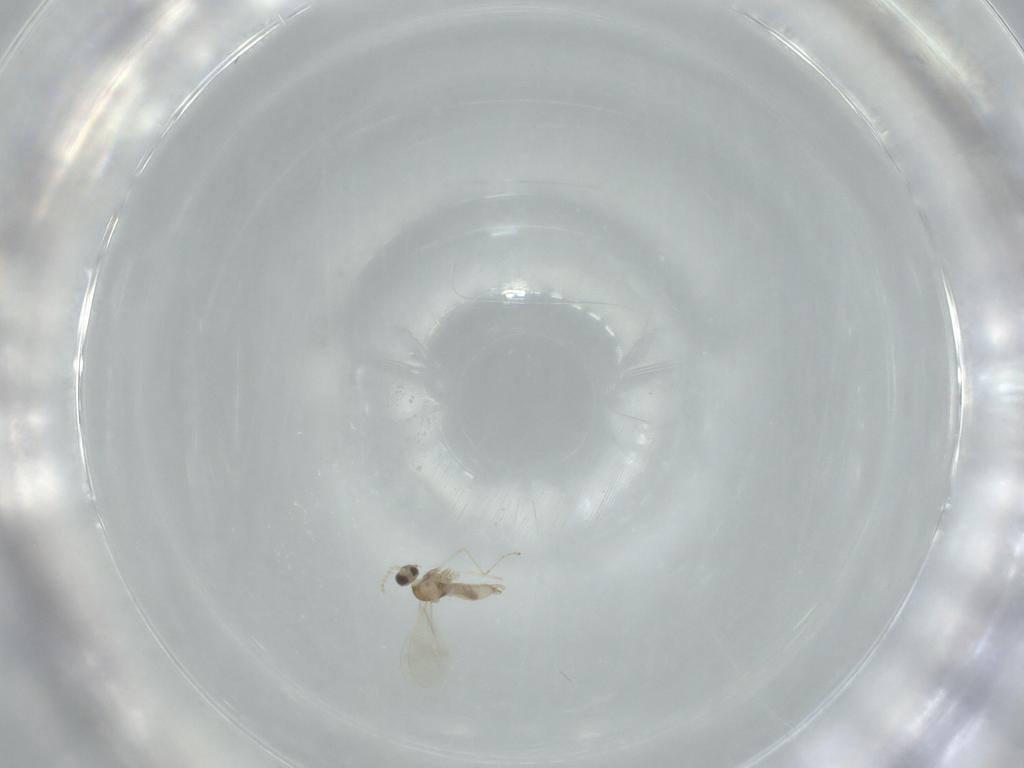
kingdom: Animalia
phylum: Arthropoda
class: Insecta
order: Diptera
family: Cecidomyiidae
